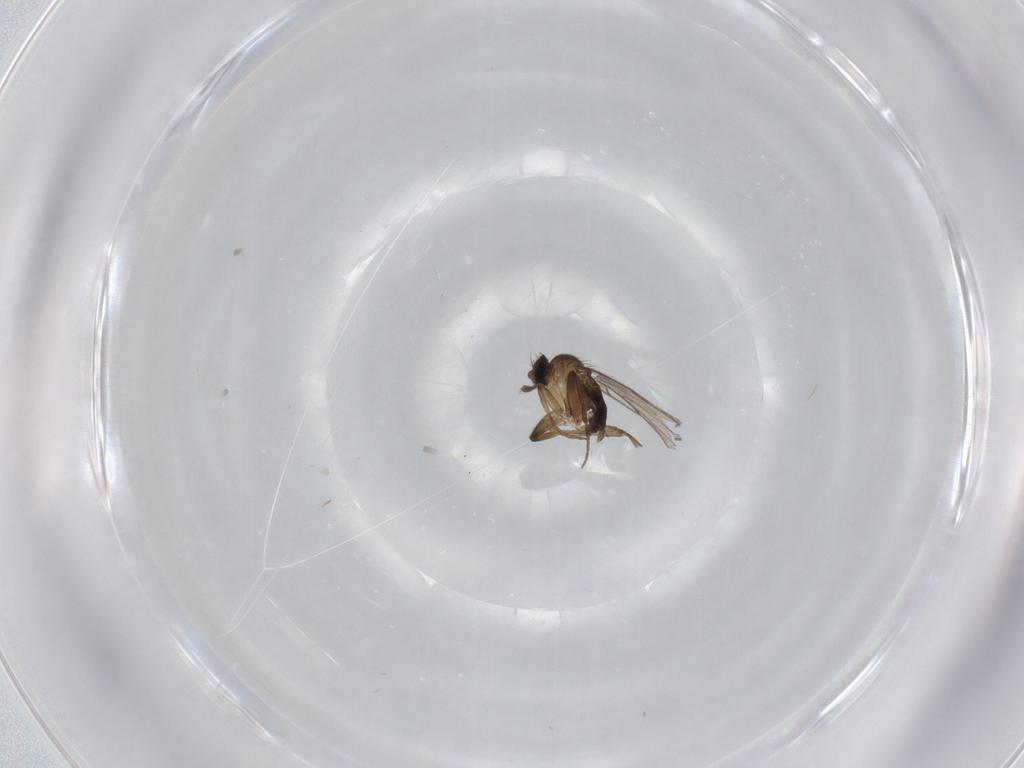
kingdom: Animalia
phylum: Arthropoda
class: Insecta
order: Diptera
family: Phoridae
